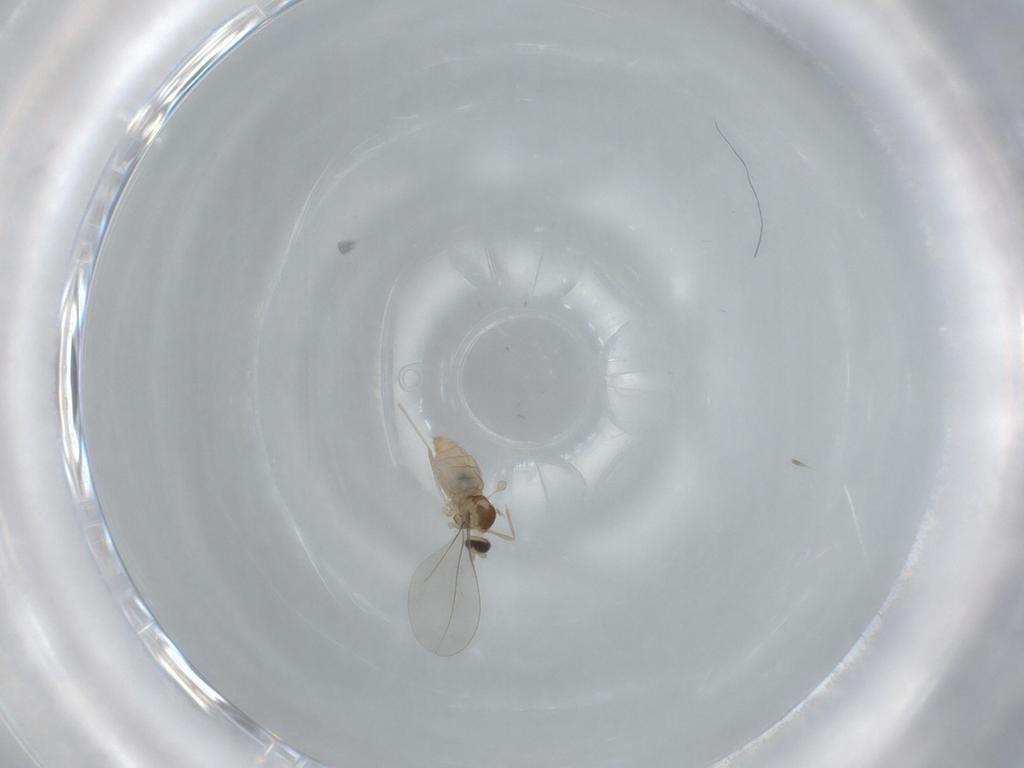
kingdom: Animalia
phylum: Arthropoda
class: Insecta
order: Diptera
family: Cecidomyiidae
